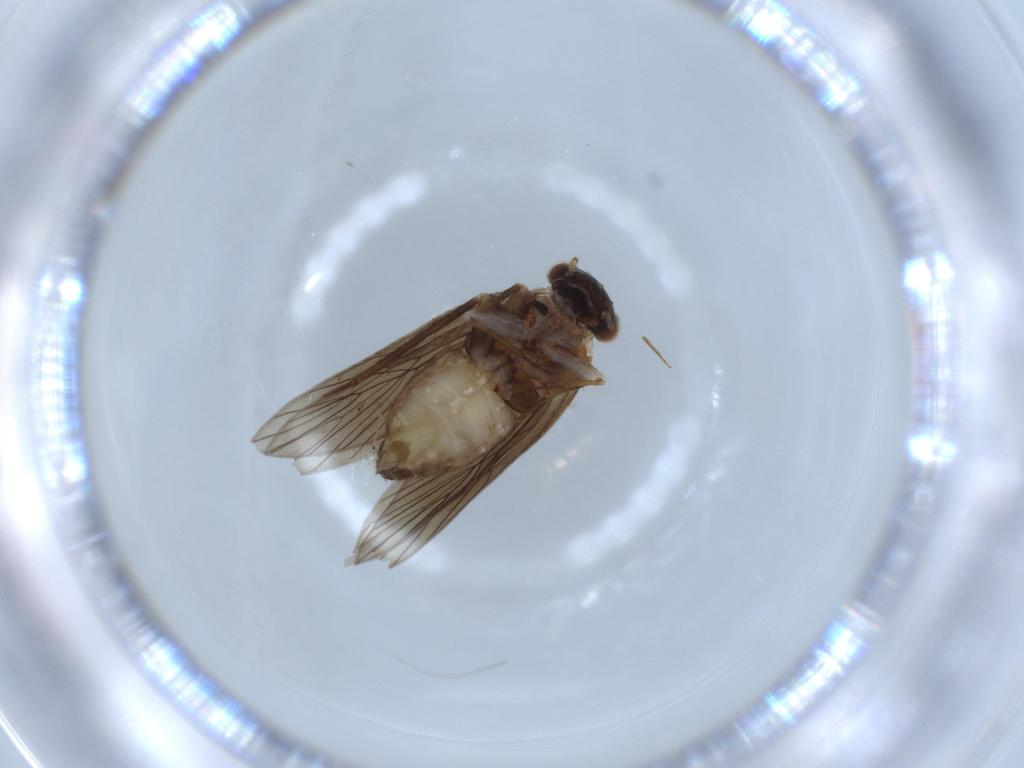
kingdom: Animalia
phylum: Arthropoda
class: Insecta
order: Psocodea
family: Lepidopsocidae
